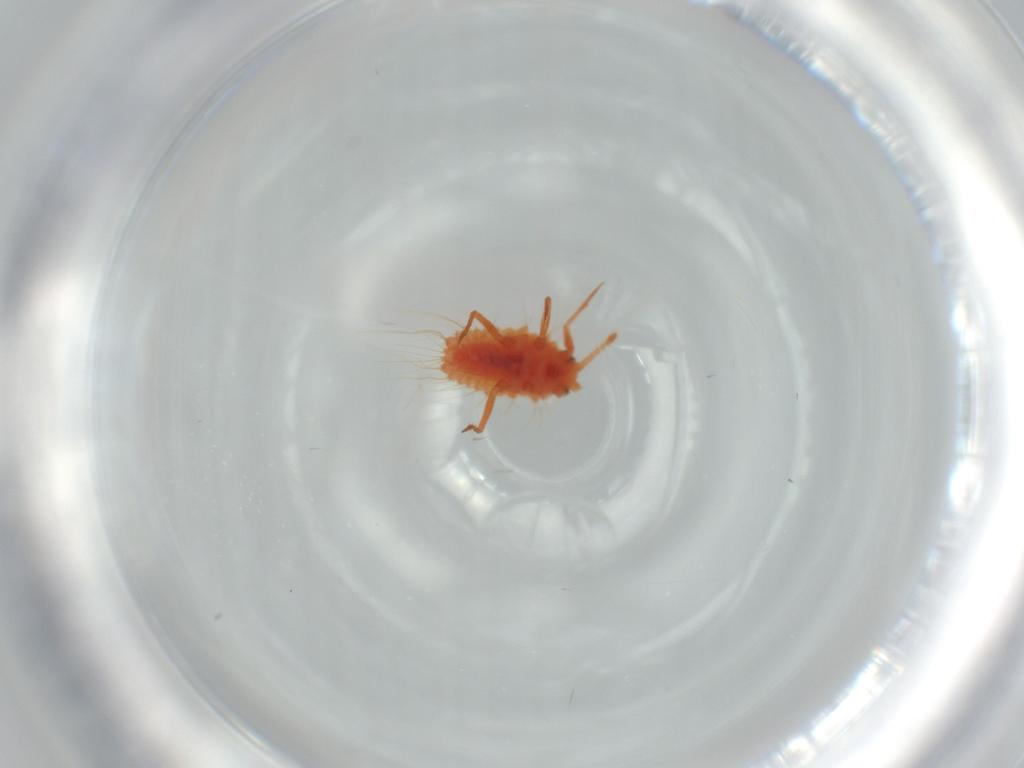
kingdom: Animalia
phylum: Arthropoda
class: Insecta
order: Hemiptera
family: Monophlebidae
